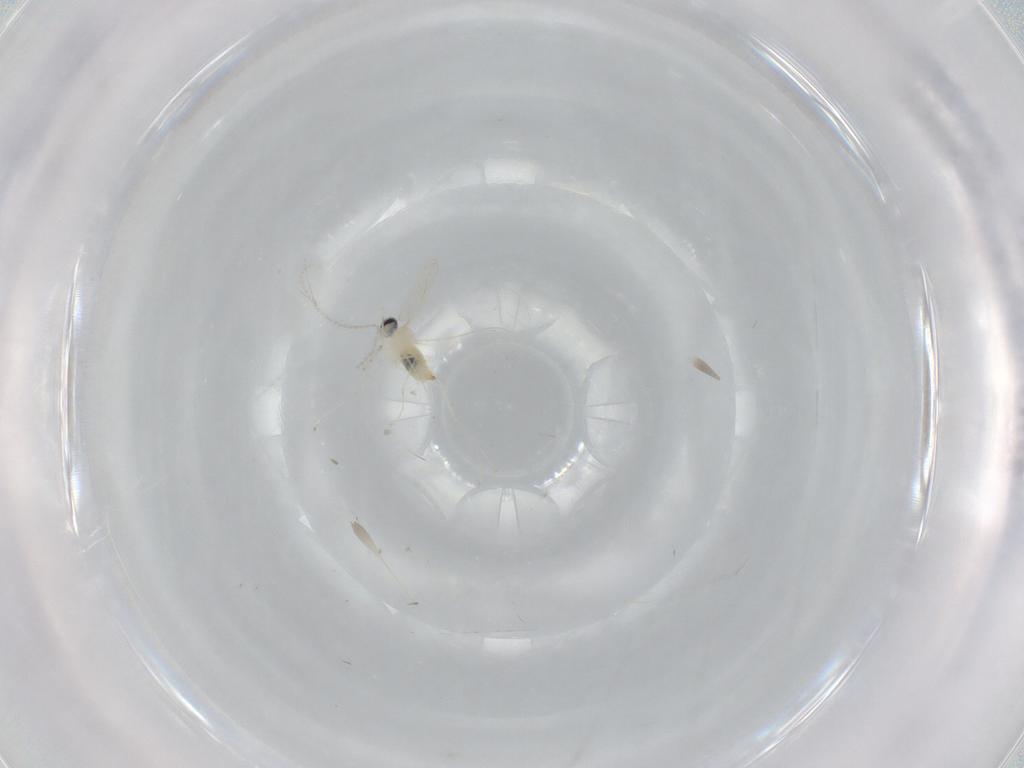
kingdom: Animalia
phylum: Arthropoda
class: Insecta
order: Diptera
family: Cecidomyiidae
